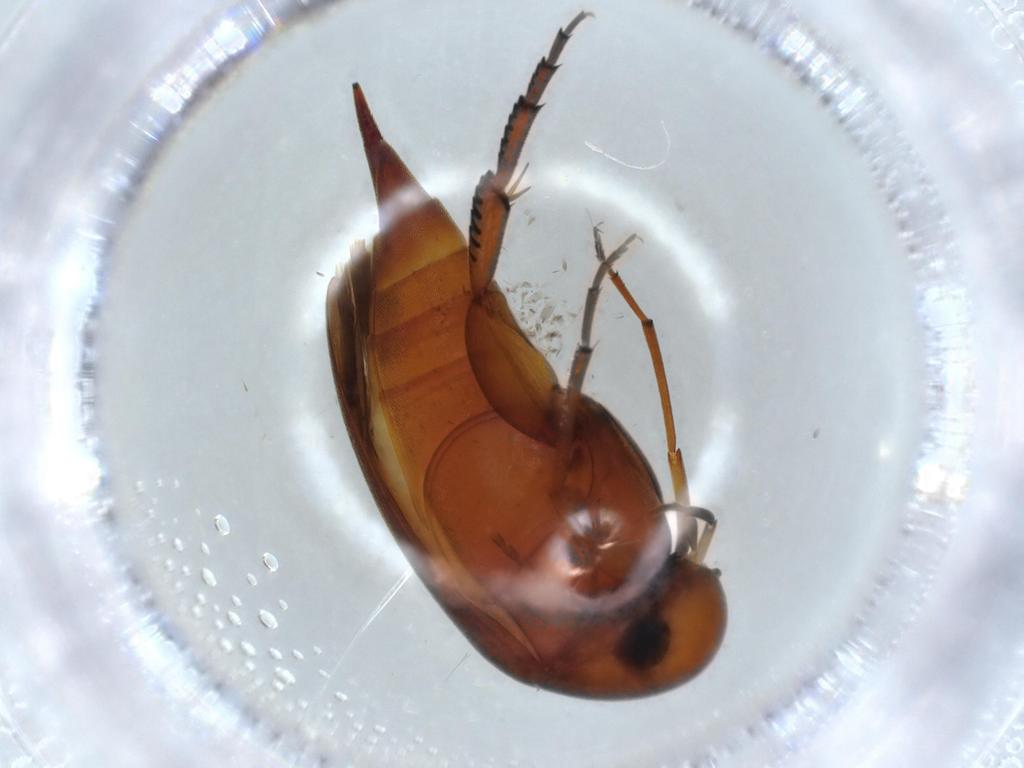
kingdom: Animalia
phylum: Arthropoda
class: Insecta
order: Coleoptera
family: Mordellidae
